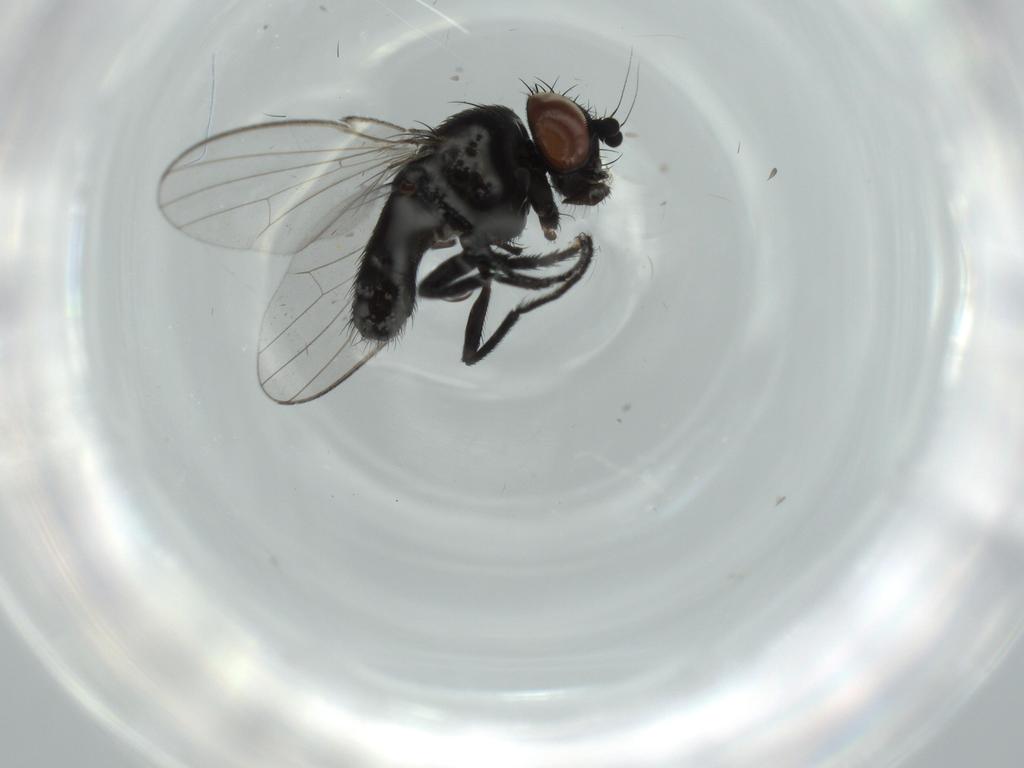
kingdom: Animalia
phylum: Arthropoda
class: Insecta
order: Diptera
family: Milichiidae
